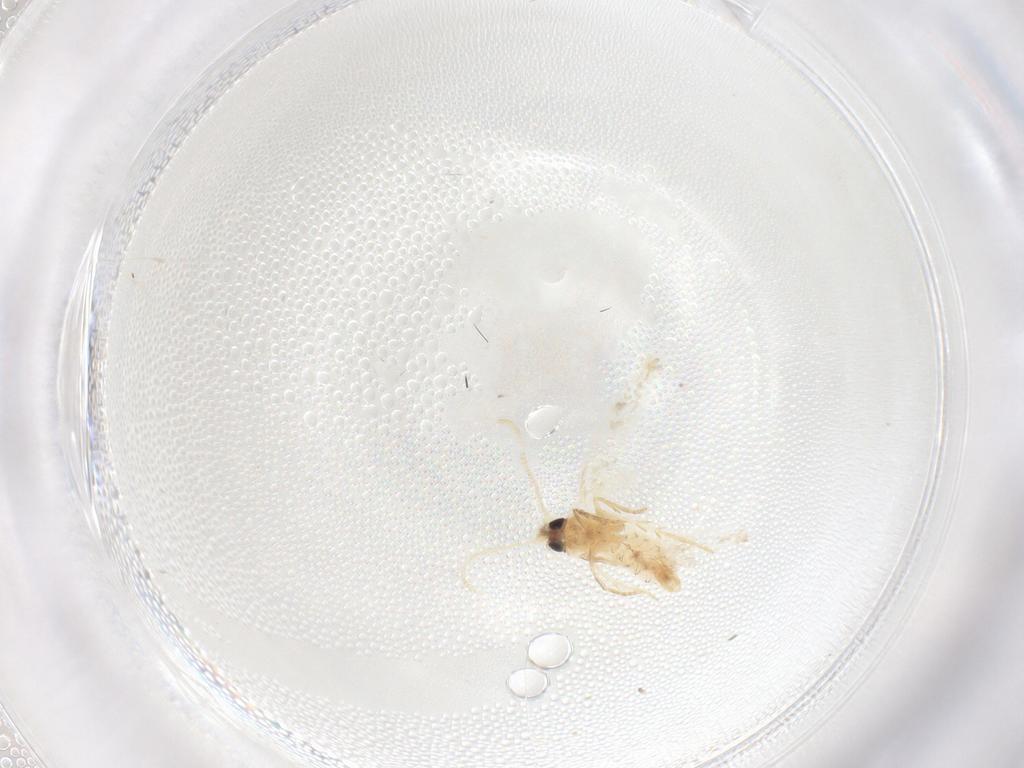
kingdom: Animalia
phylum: Arthropoda
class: Insecta
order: Lepidoptera
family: Nepticulidae
